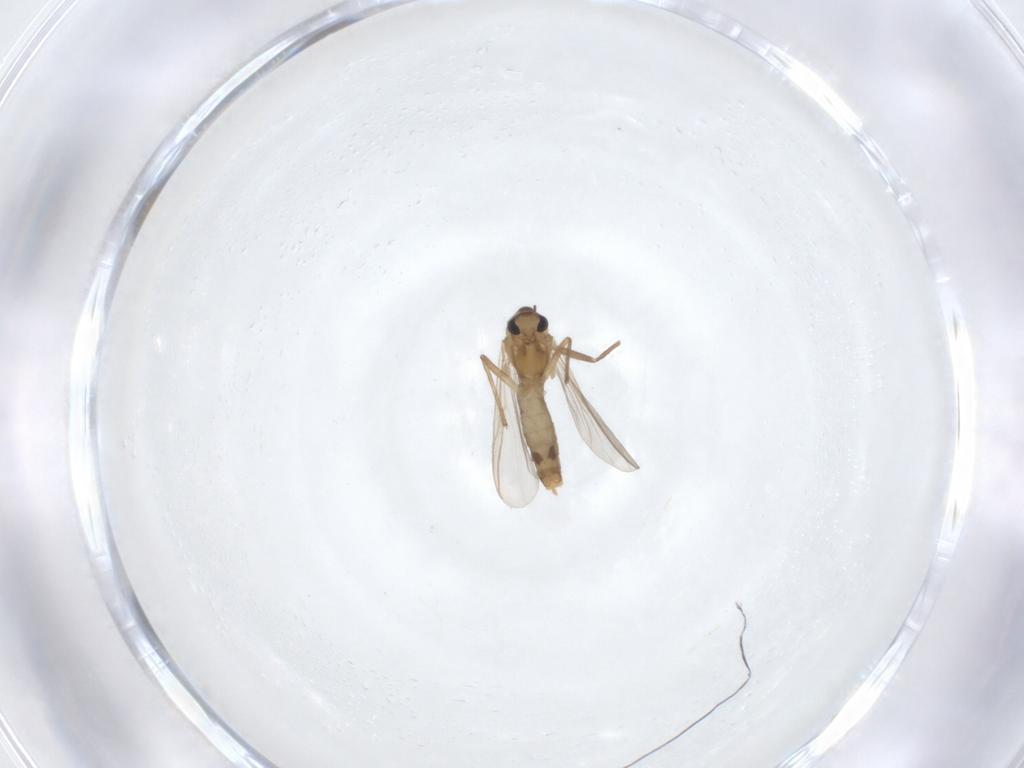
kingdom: Animalia
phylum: Arthropoda
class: Insecta
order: Diptera
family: Chironomidae
